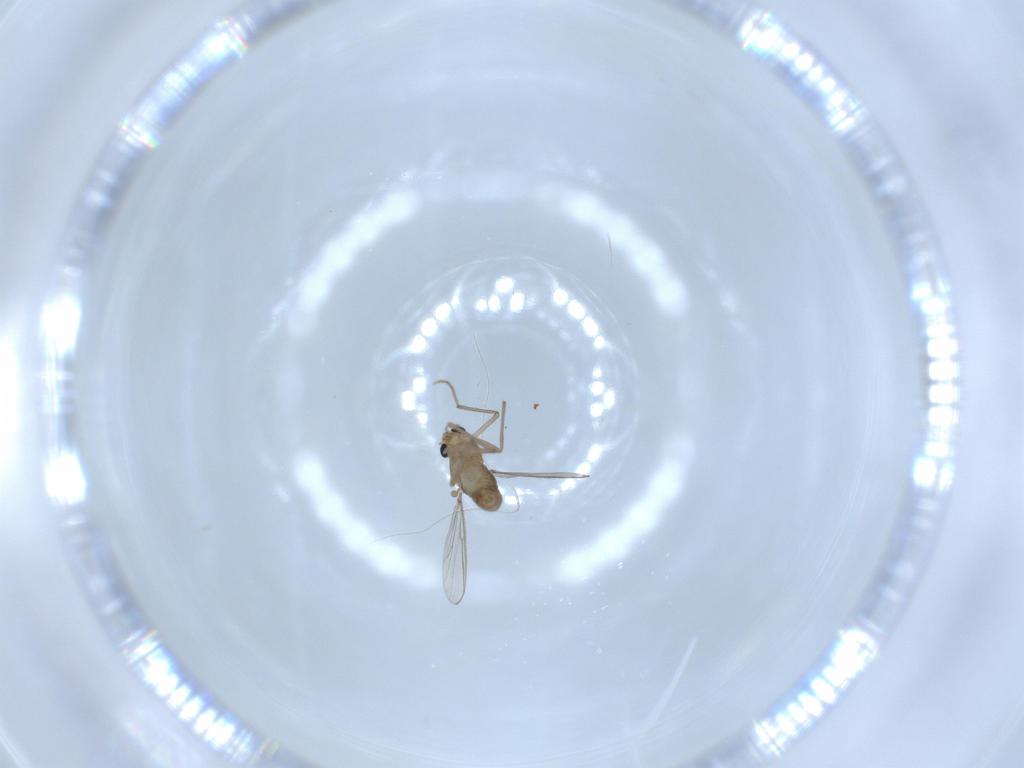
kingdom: Animalia
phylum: Arthropoda
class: Insecta
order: Diptera
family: Chironomidae
